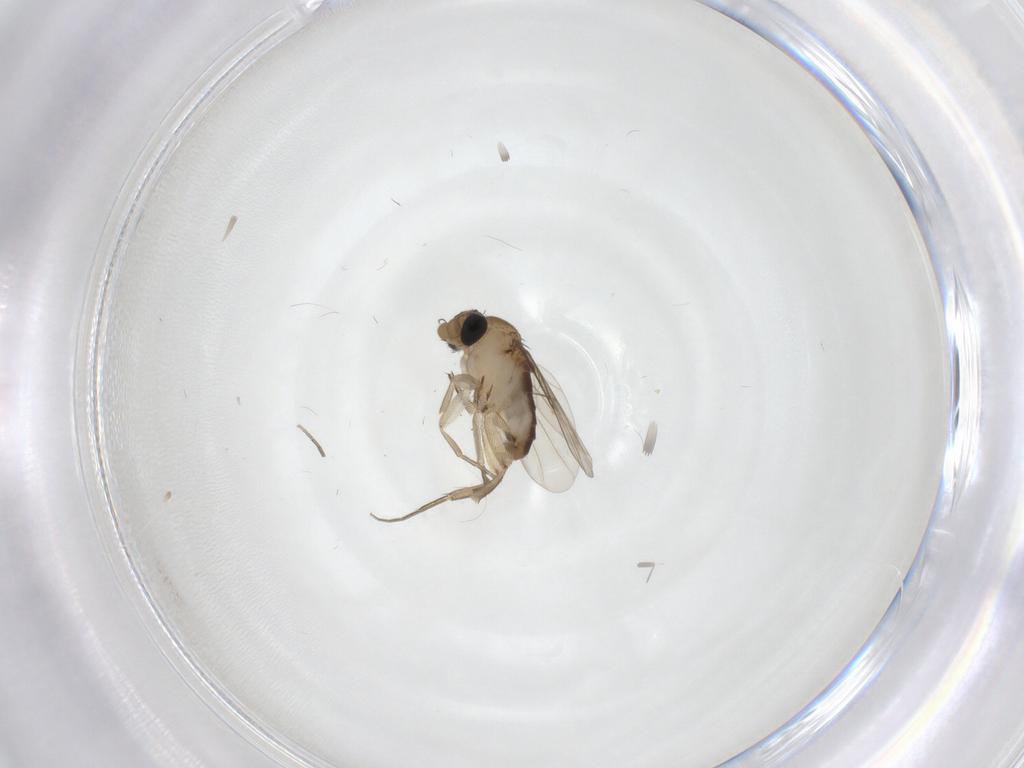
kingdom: Animalia
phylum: Arthropoda
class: Insecta
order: Diptera
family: Phoridae
